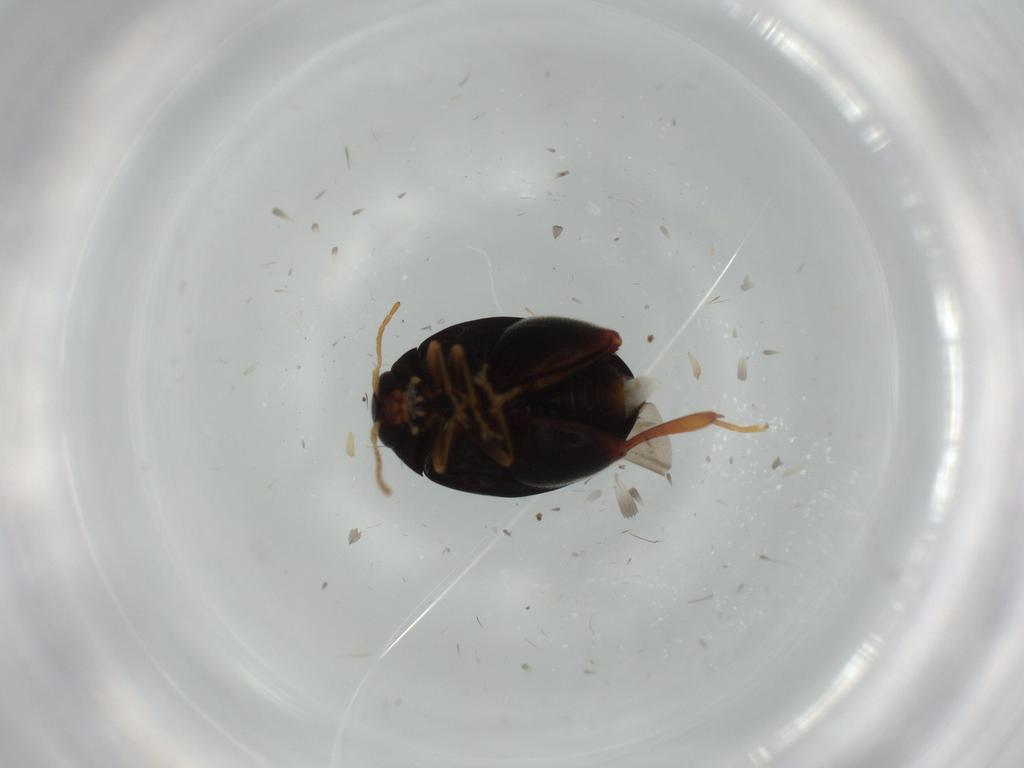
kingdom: Animalia
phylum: Arthropoda
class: Insecta
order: Coleoptera
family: Chrysomelidae
